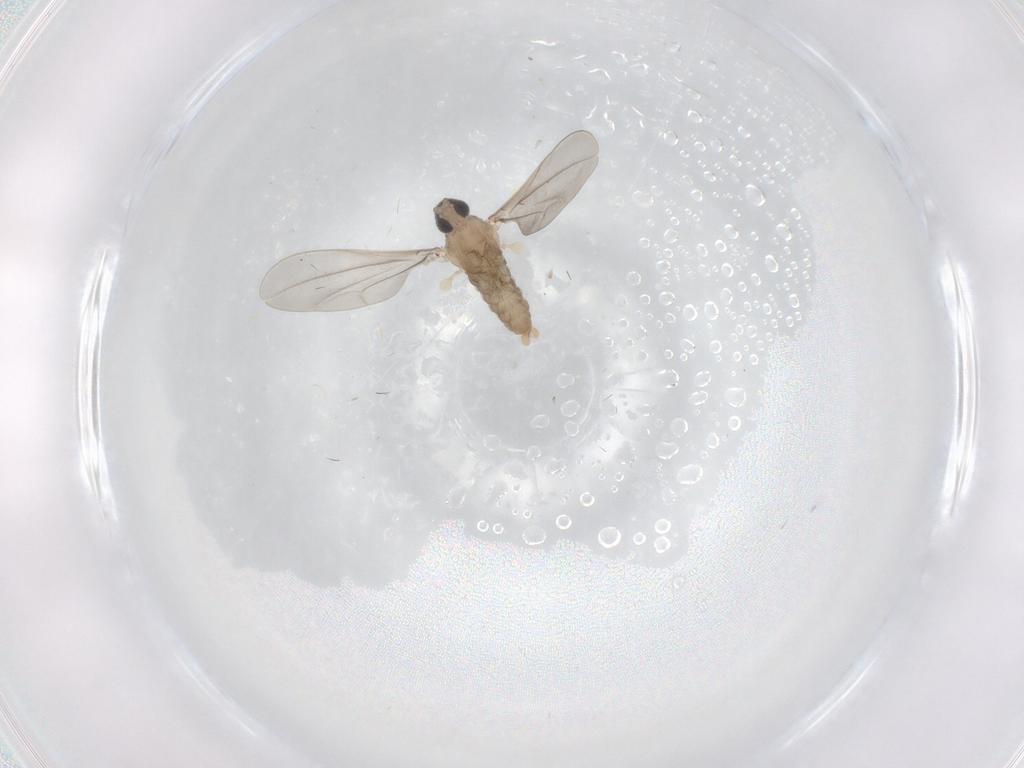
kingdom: Animalia
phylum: Arthropoda
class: Insecta
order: Diptera
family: Cecidomyiidae
